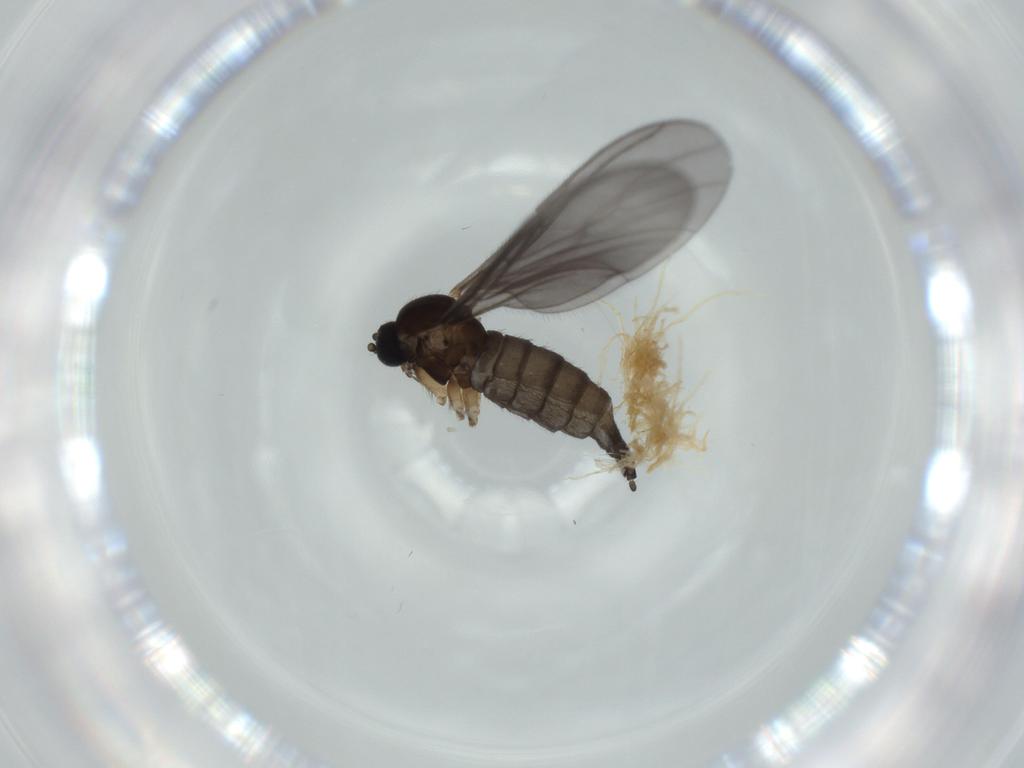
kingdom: Animalia
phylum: Arthropoda
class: Insecta
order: Diptera
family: Sciaridae
